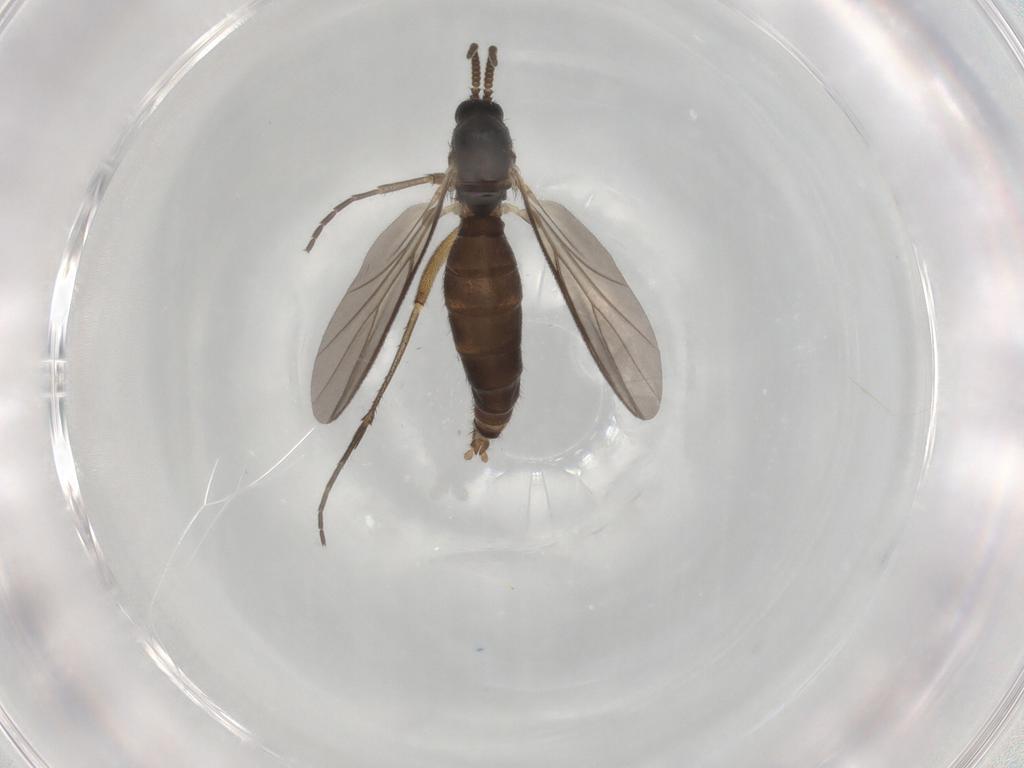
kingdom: Animalia
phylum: Arthropoda
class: Insecta
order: Diptera
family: Mycetophilidae
